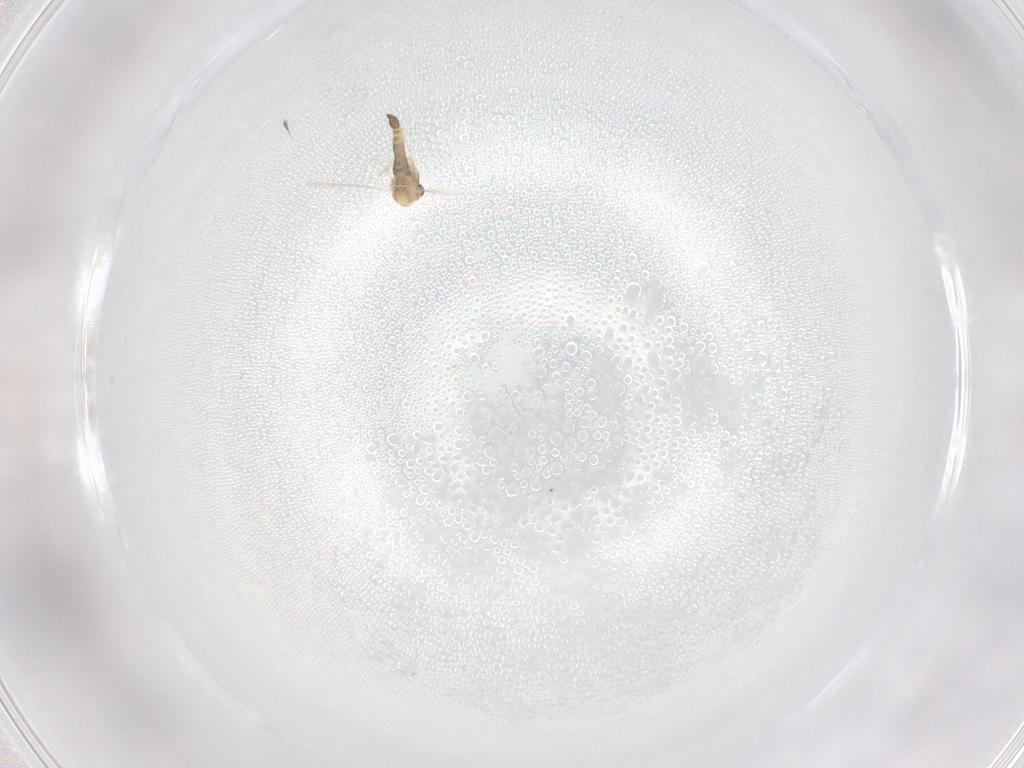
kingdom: Animalia
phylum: Arthropoda
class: Insecta
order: Diptera
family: Chironomidae
